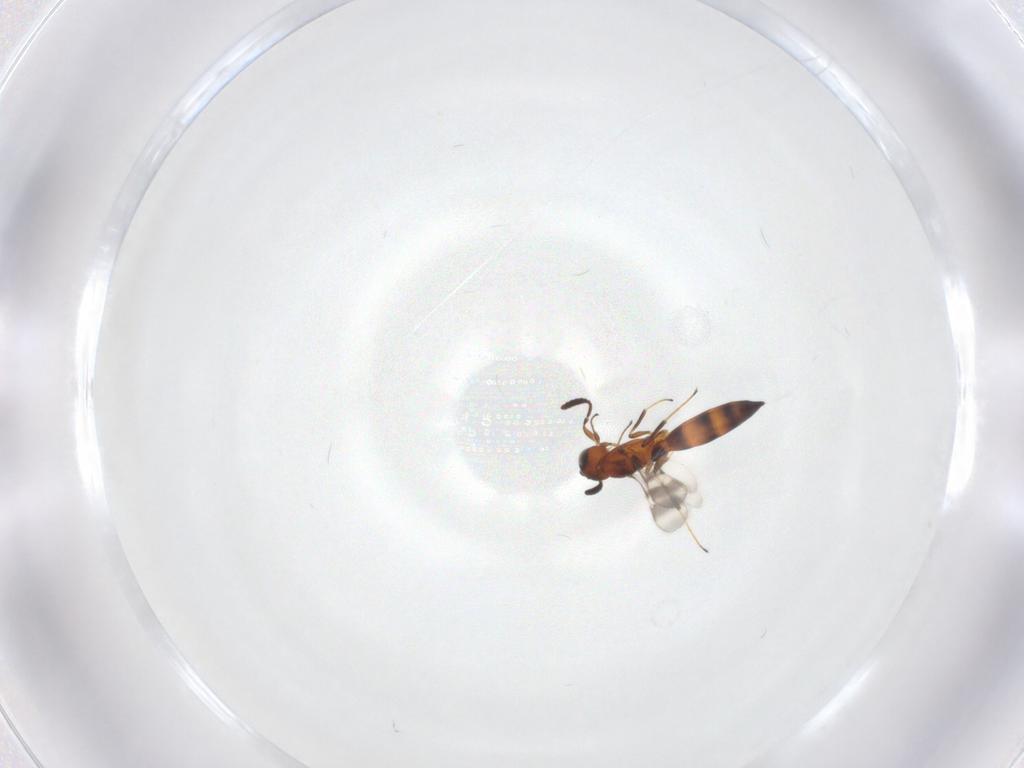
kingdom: Animalia
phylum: Arthropoda
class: Insecta
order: Hymenoptera
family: Scelionidae
